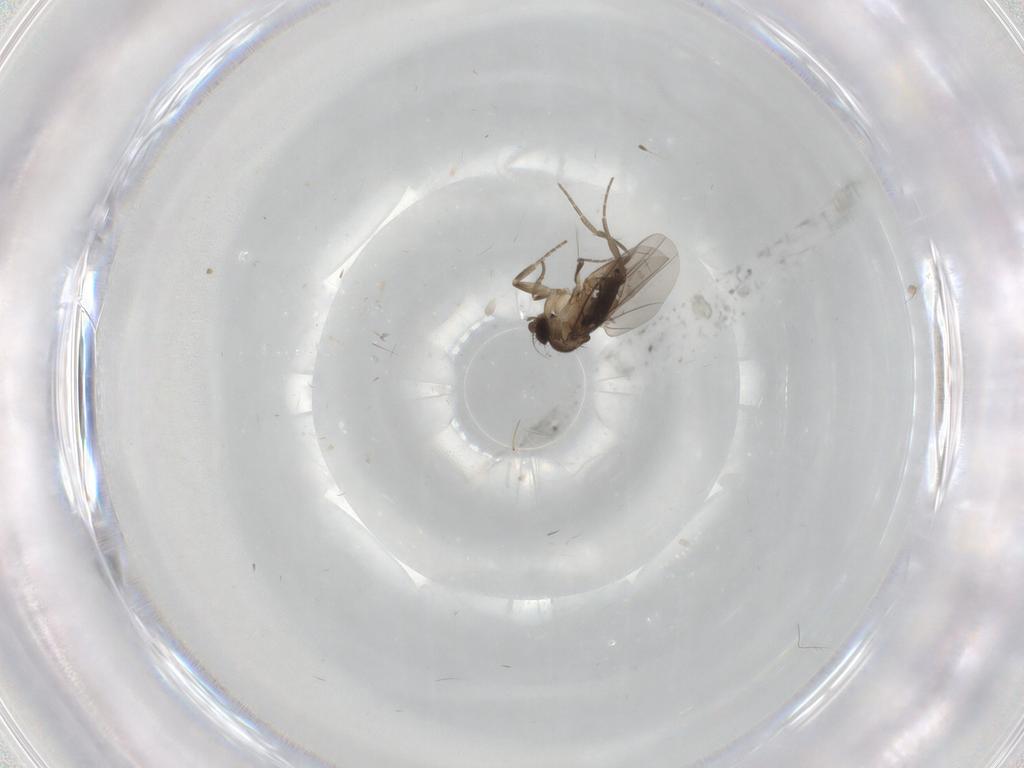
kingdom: Animalia
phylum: Arthropoda
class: Insecta
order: Diptera
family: Phoridae
